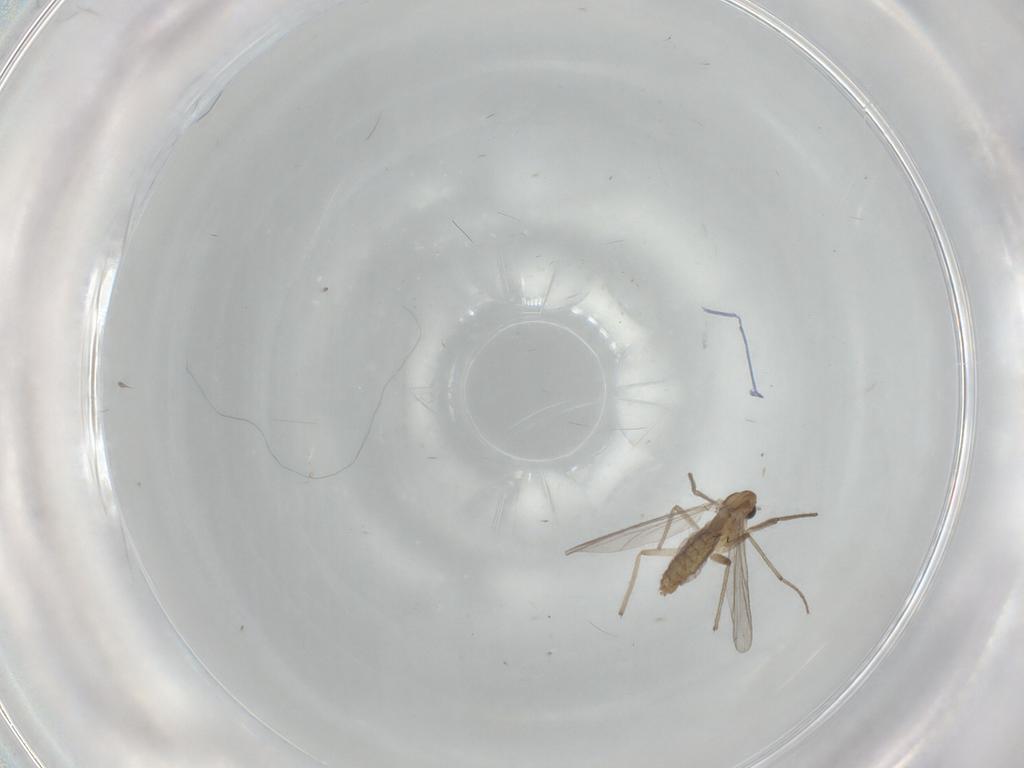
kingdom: Animalia
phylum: Arthropoda
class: Insecta
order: Diptera
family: Chironomidae
